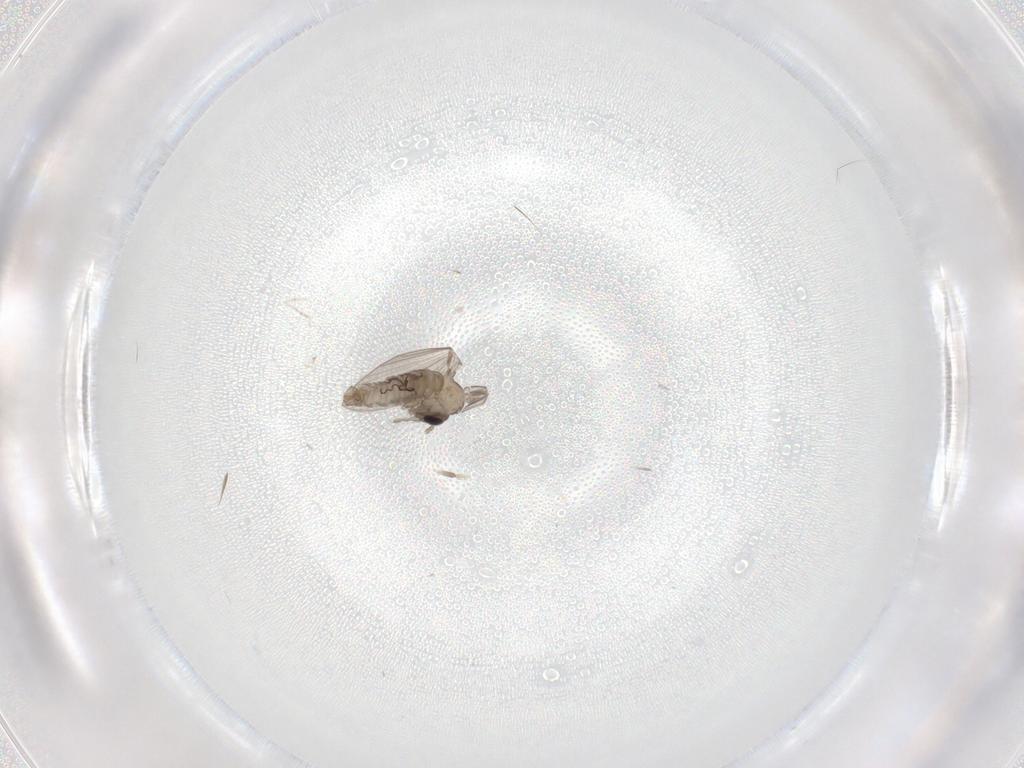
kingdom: Animalia
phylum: Arthropoda
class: Insecta
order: Diptera
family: Psychodidae
